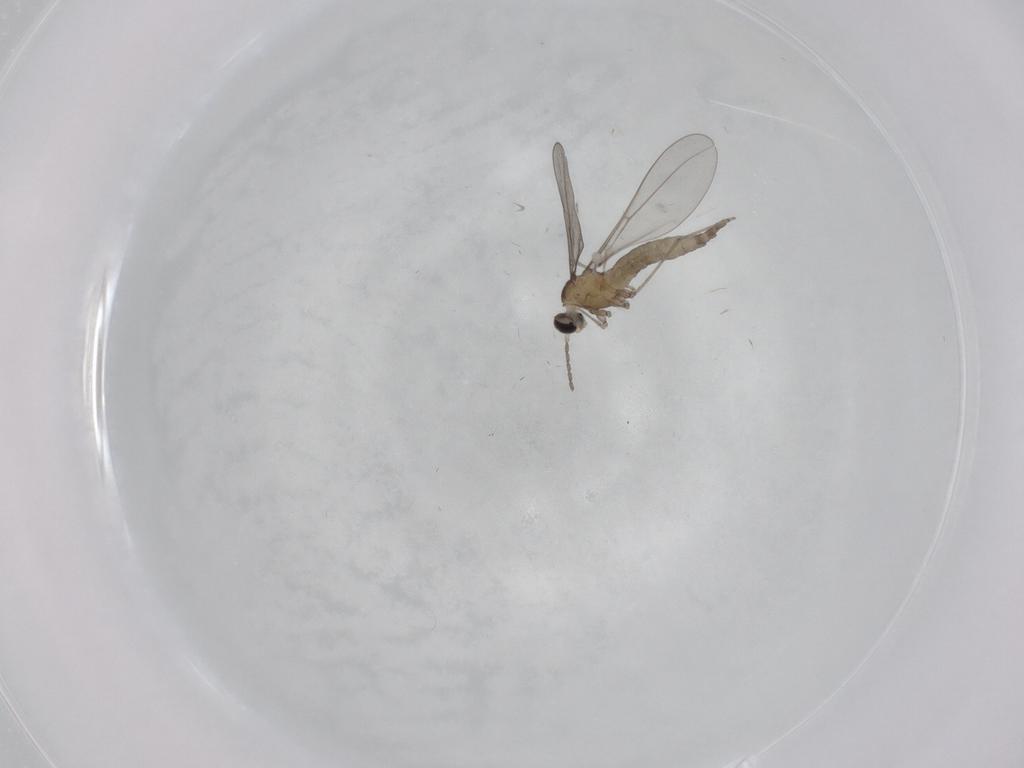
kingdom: Animalia
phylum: Arthropoda
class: Insecta
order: Diptera
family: Cecidomyiidae
